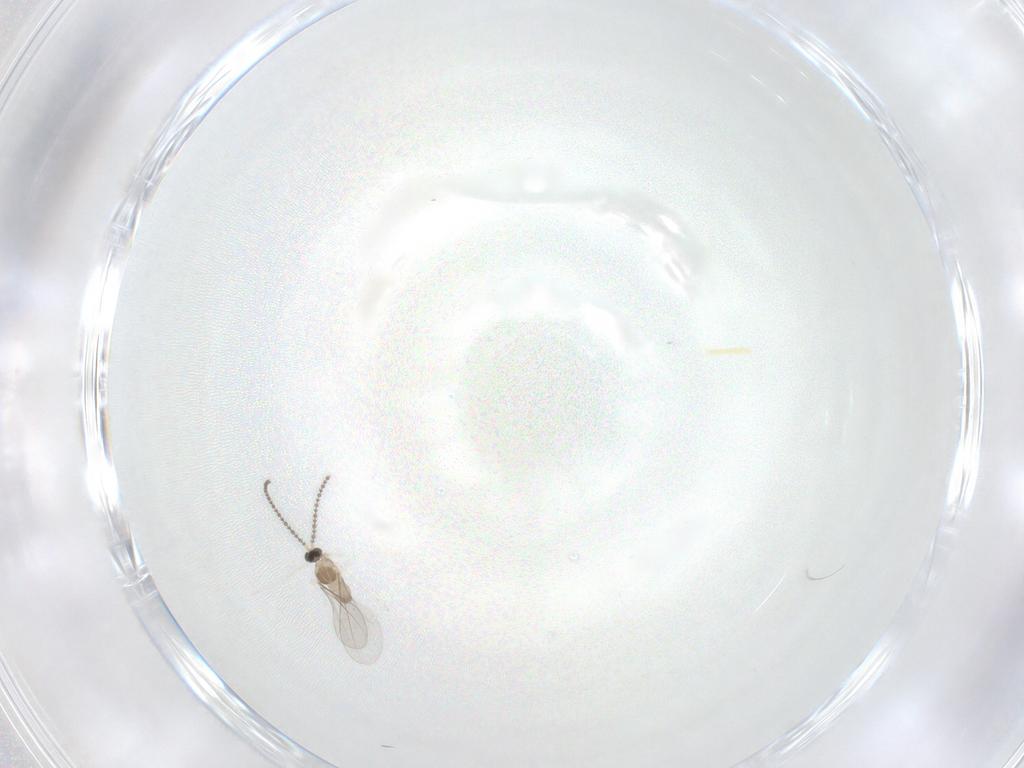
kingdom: Animalia
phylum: Arthropoda
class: Insecta
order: Diptera
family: Cecidomyiidae
